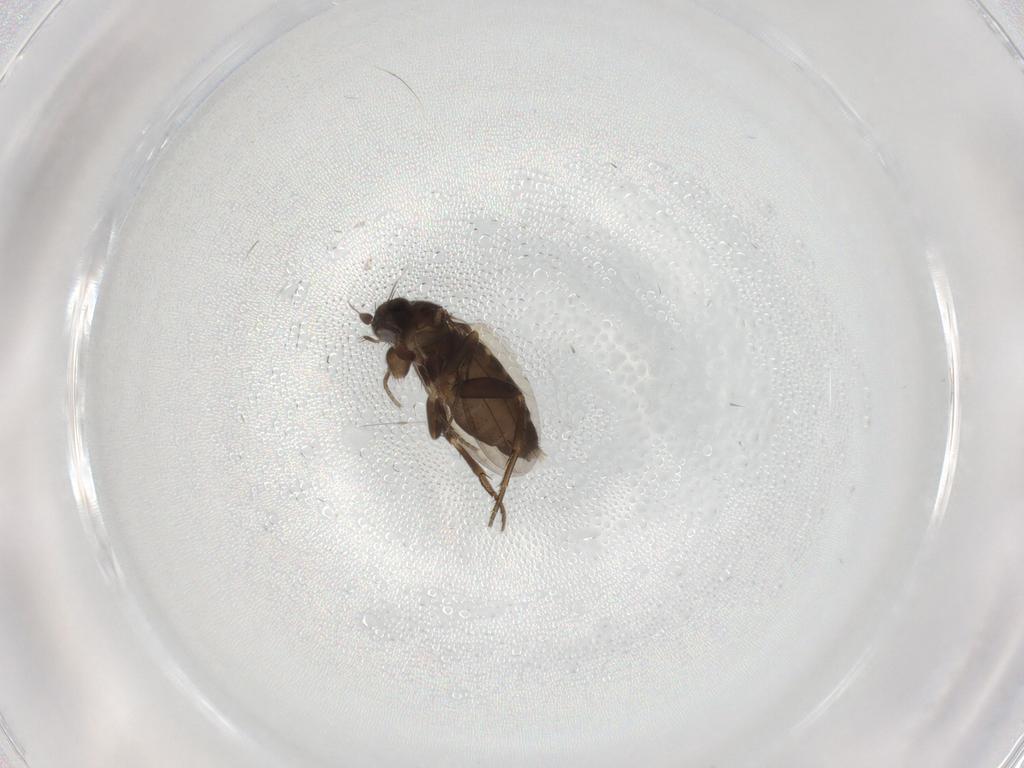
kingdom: Animalia
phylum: Arthropoda
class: Insecta
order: Diptera
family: Phoridae
